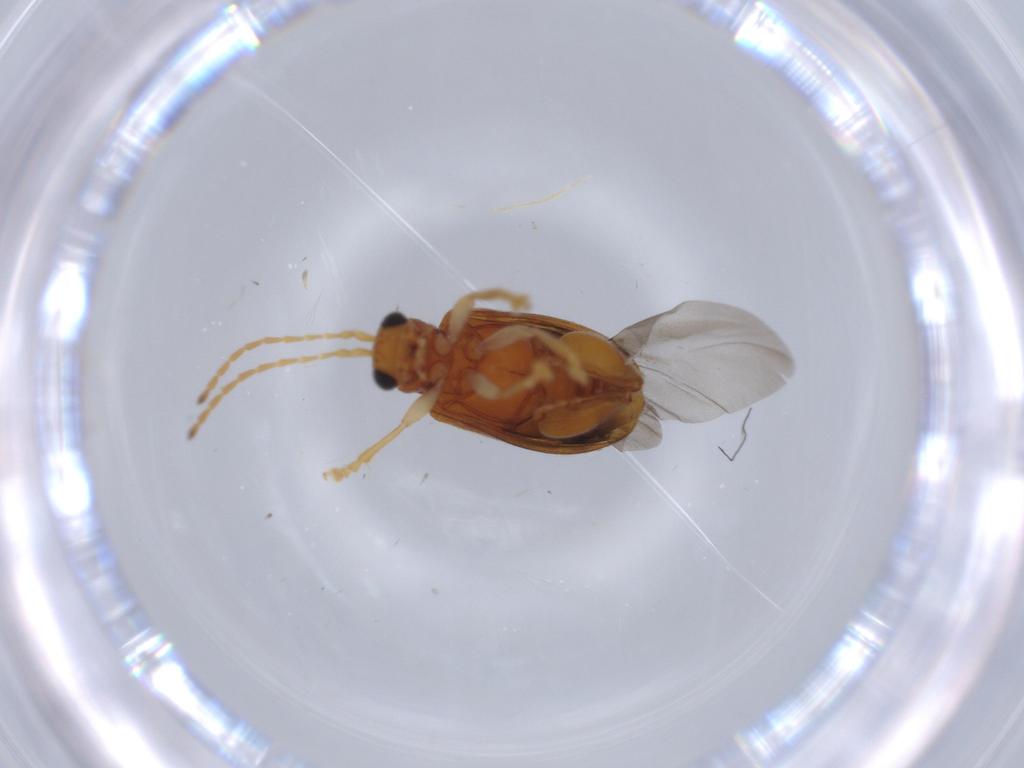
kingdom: Animalia
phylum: Arthropoda
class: Insecta
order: Coleoptera
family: Chrysomelidae
